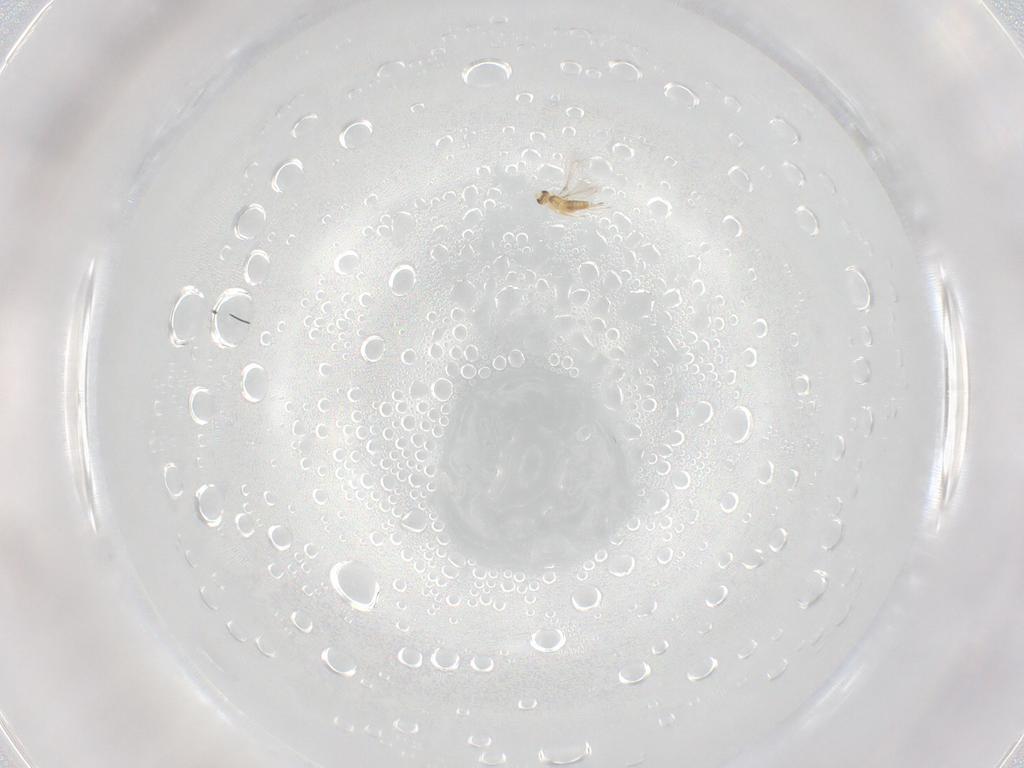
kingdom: Animalia
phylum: Arthropoda
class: Insecta
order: Hymenoptera
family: Mymaridae
